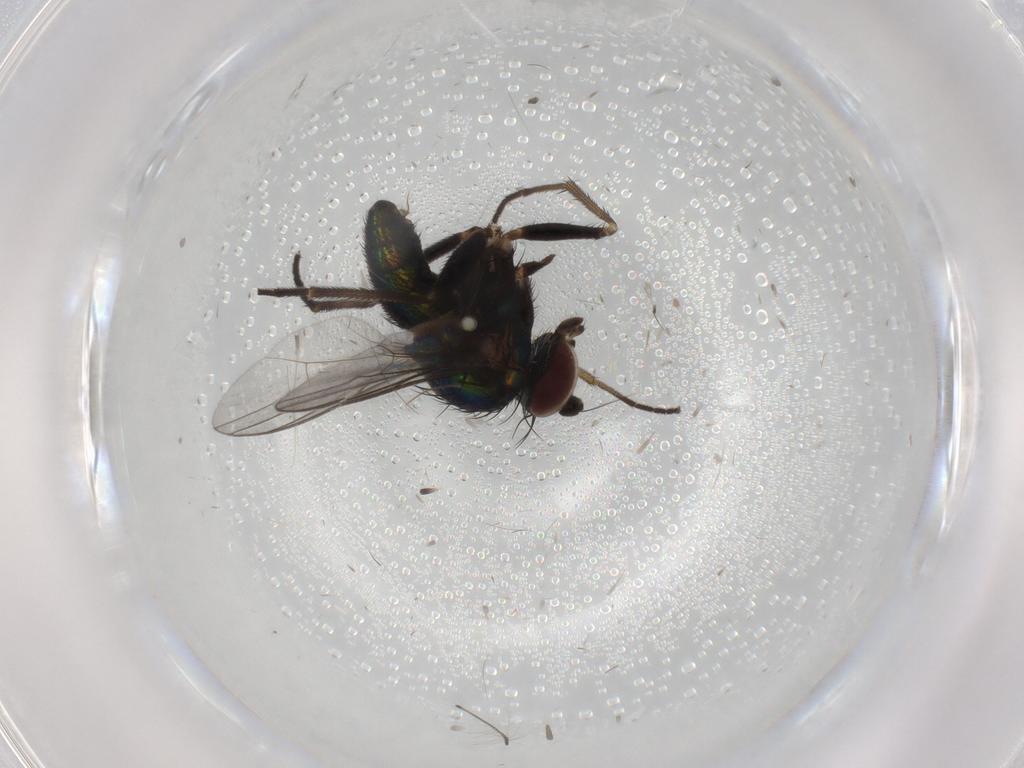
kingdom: Animalia
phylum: Arthropoda
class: Insecta
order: Diptera
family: Dolichopodidae
